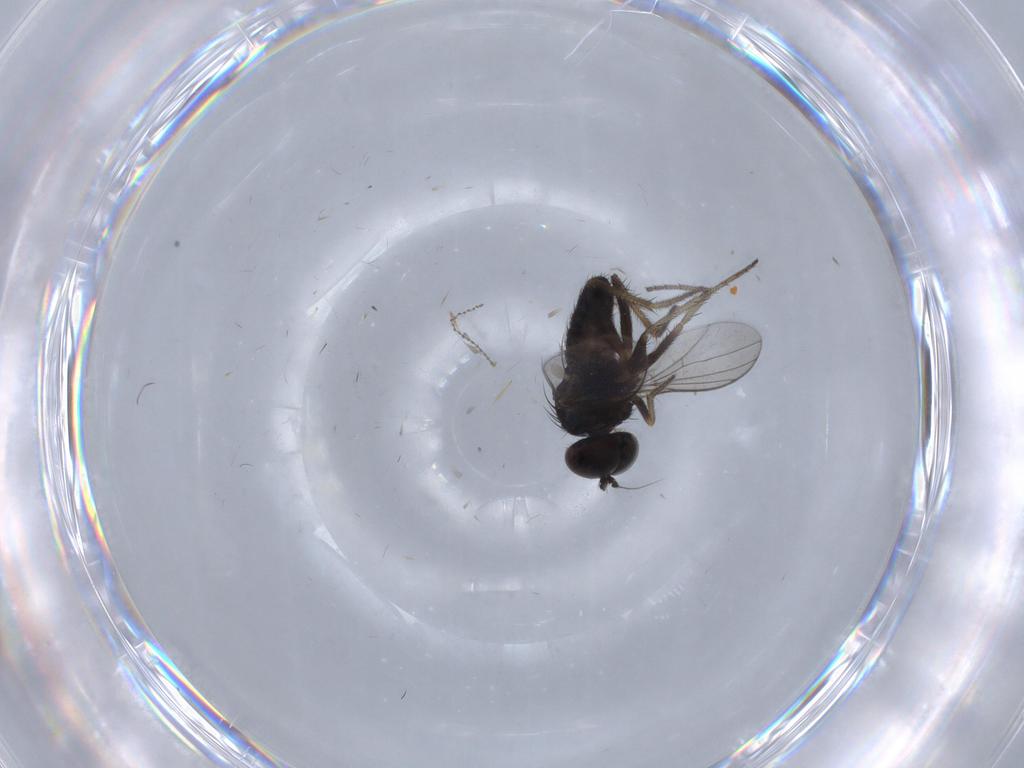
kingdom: Animalia
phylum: Arthropoda
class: Insecta
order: Diptera
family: Cecidomyiidae
